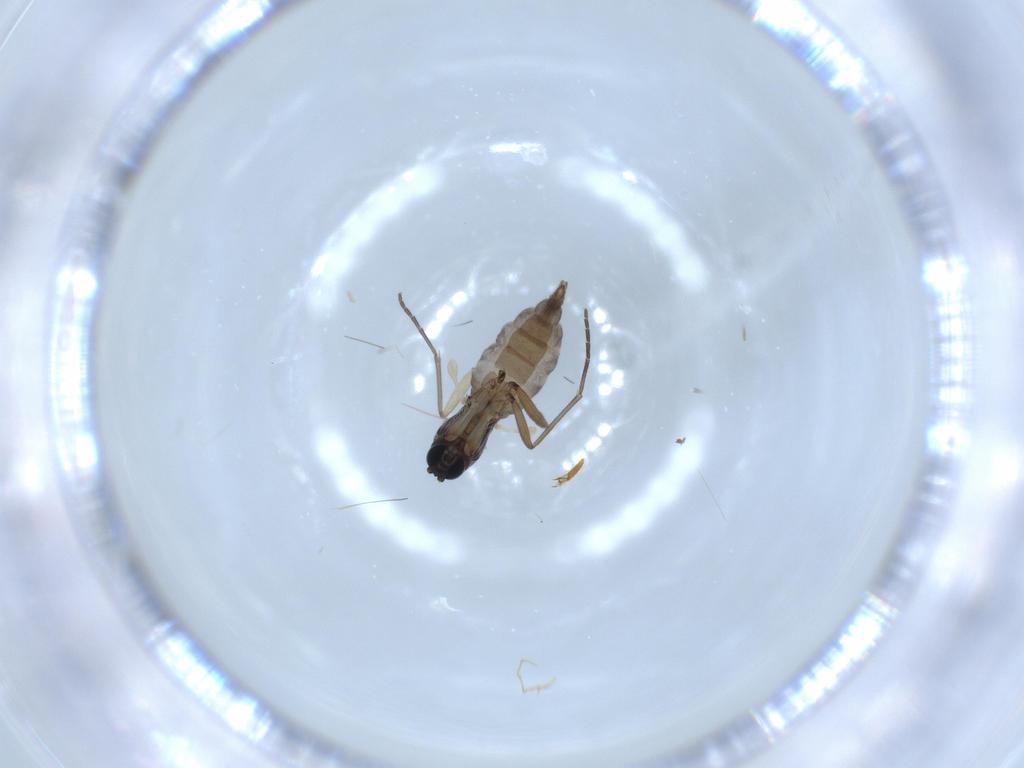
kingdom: Animalia
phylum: Arthropoda
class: Insecta
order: Diptera
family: Sciaridae
